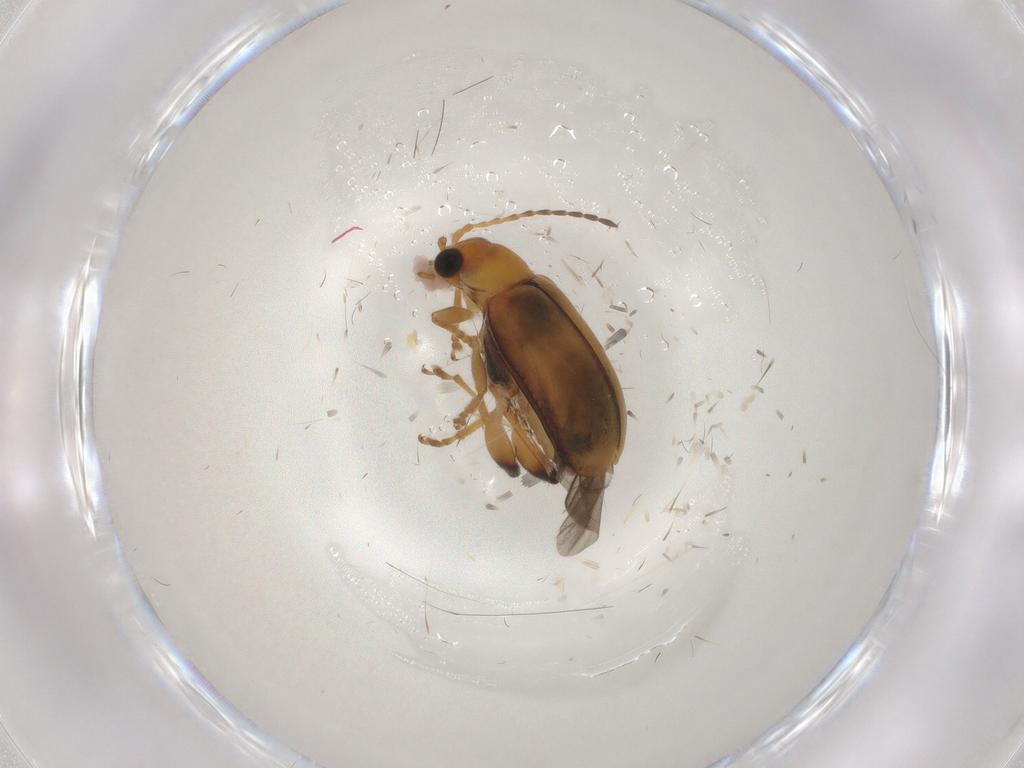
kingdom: Animalia
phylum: Arthropoda
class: Insecta
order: Coleoptera
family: Chrysomelidae
